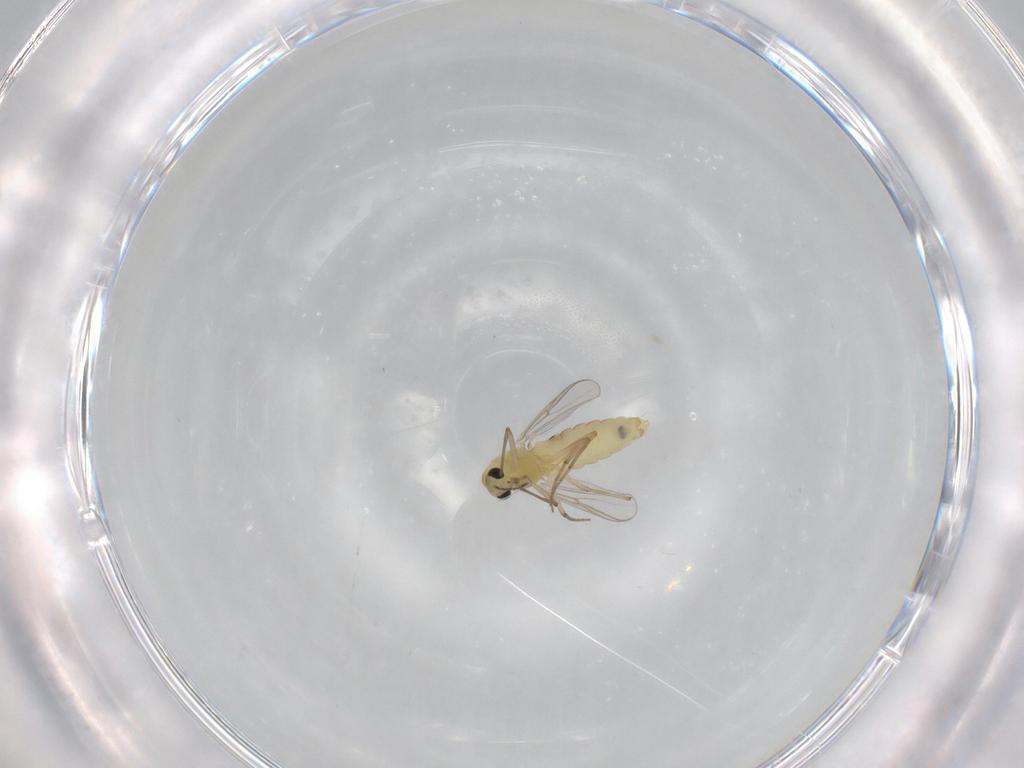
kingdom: Animalia
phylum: Arthropoda
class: Insecta
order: Diptera
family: Chironomidae
